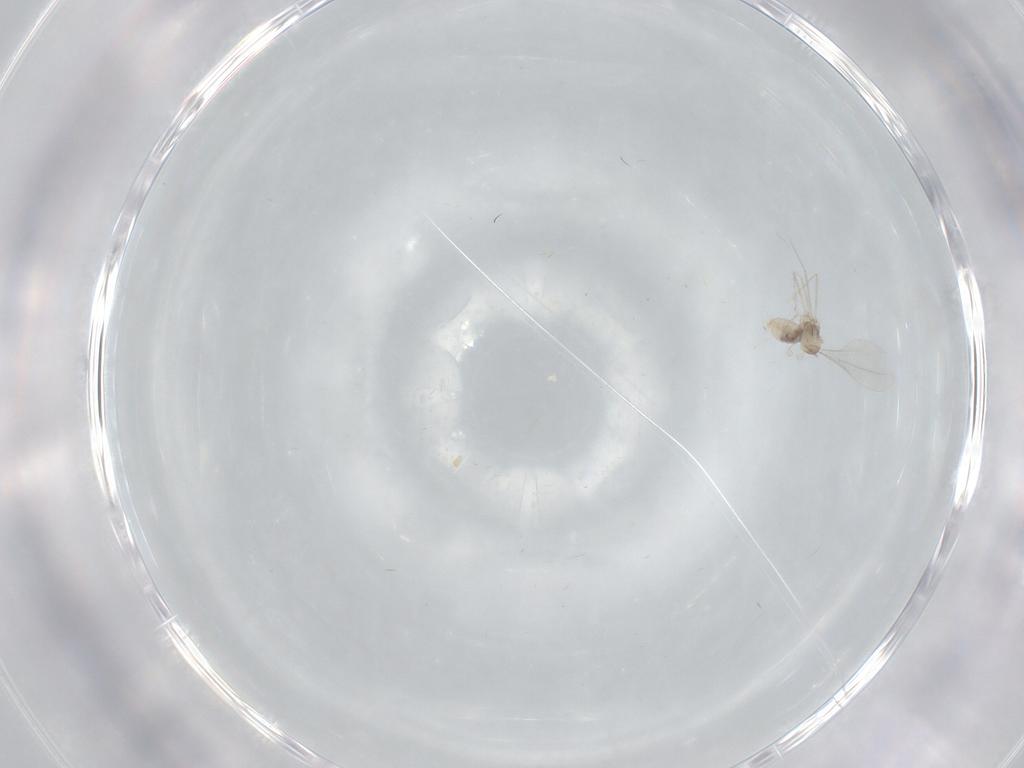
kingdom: Animalia
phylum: Arthropoda
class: Insecta
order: Diptera
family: Cecidomyiidae
